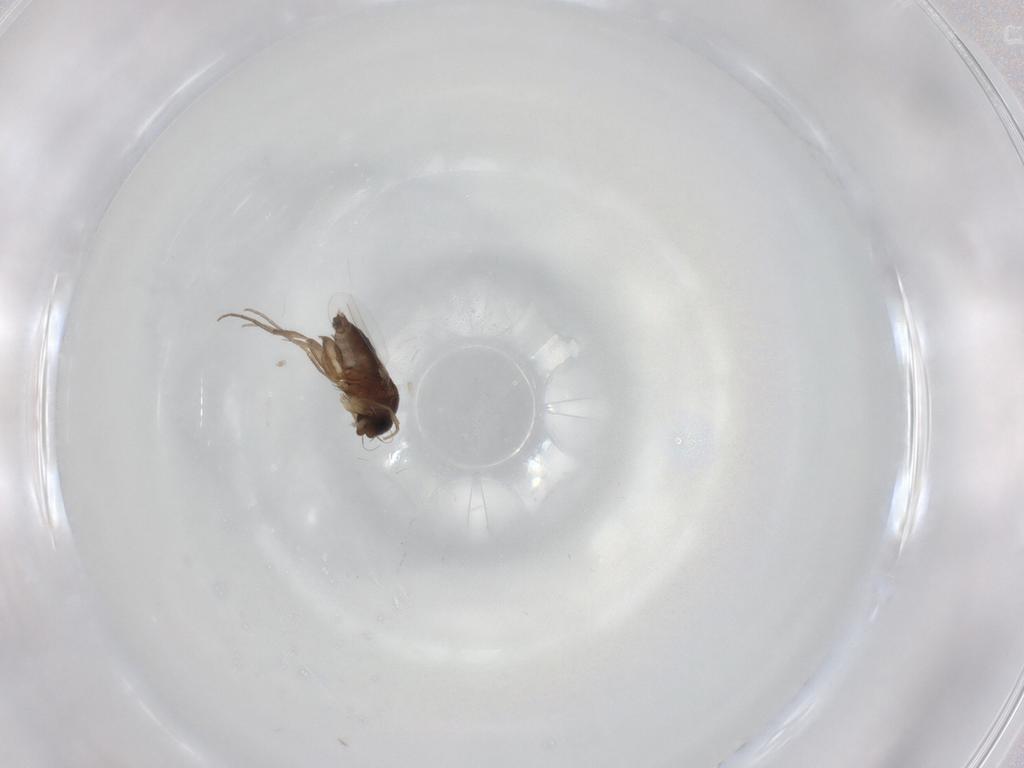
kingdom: Animalia
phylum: Arthropoda
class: Insecta
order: Diptera
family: Phoridae
